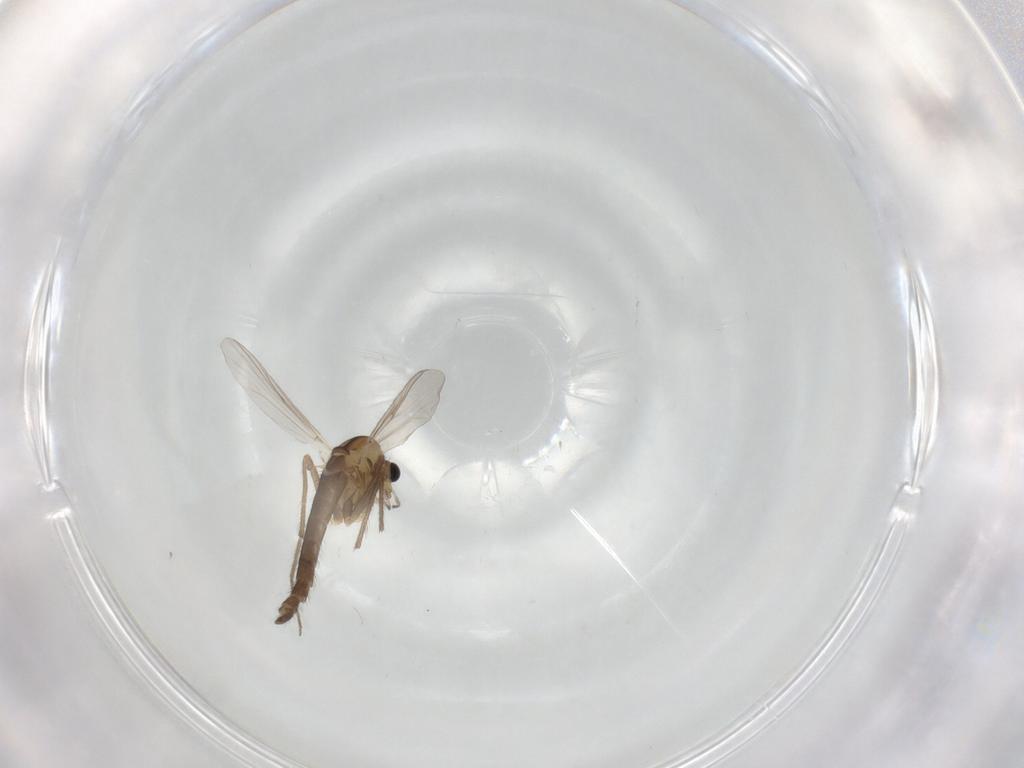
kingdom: Animalia
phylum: Arthropoda
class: Insecta
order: Diptera
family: Chironomidae
